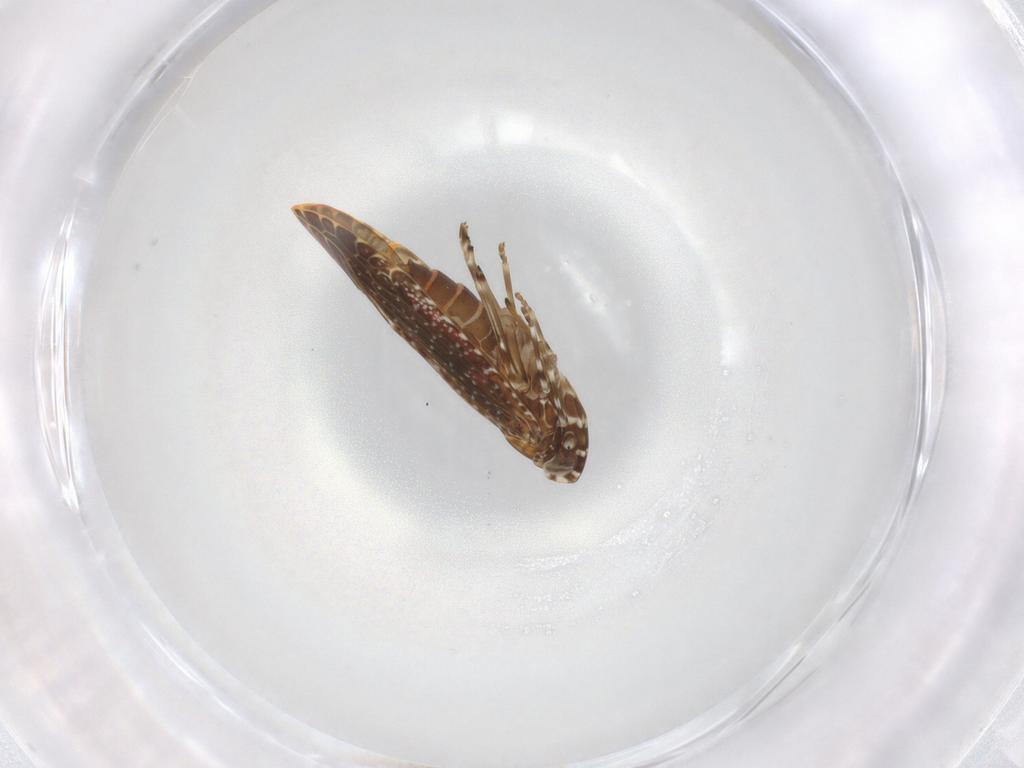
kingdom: Animalia
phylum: Arthropoda
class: Insecta
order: Hemiptera
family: Achilidae
